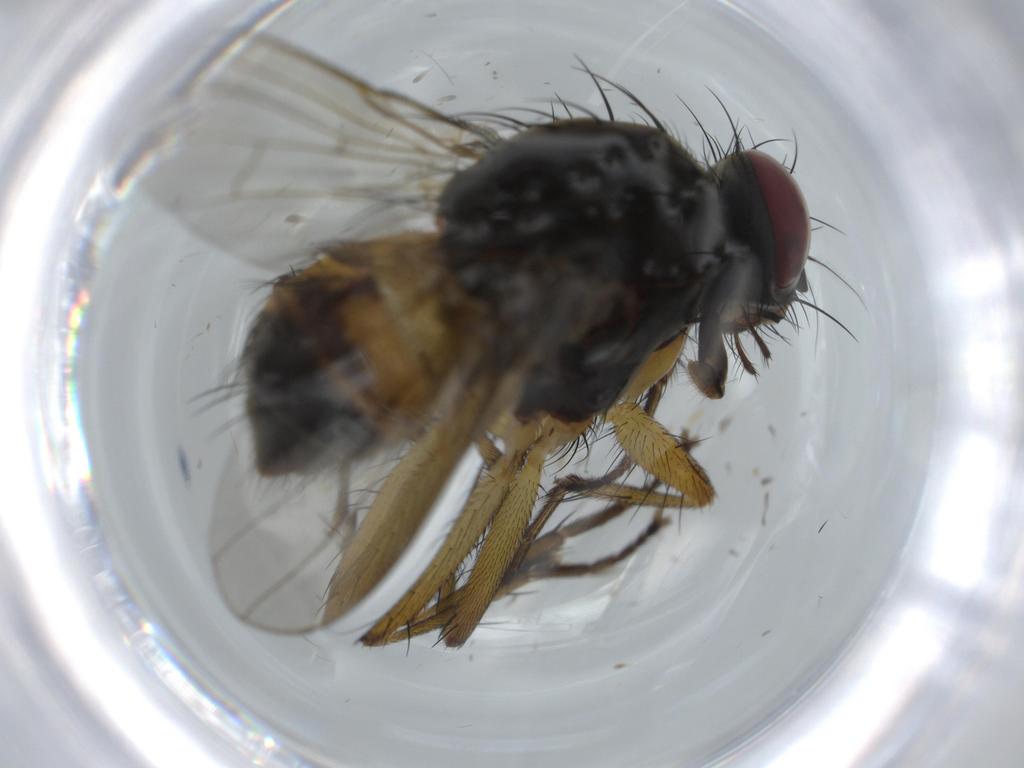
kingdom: Animalia
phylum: Arthropoda
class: Insecta
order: Diptera
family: Muscidae
